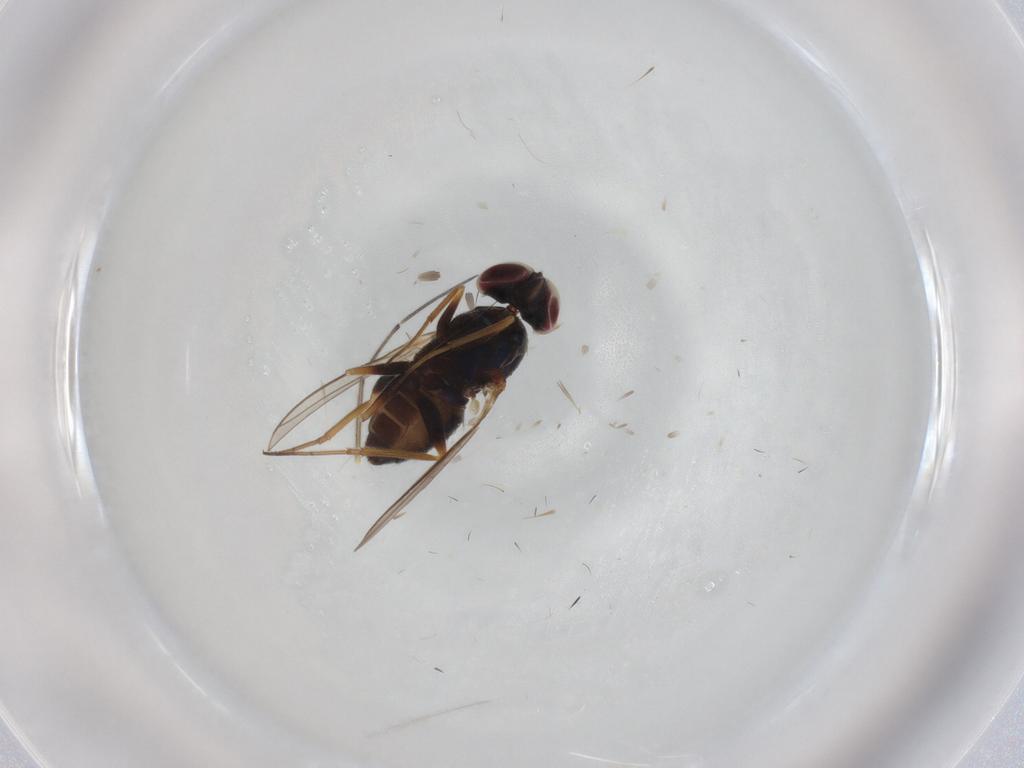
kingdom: Animalia
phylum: Arthropoda
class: Insecta
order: Diptera
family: Dolichopodidae
